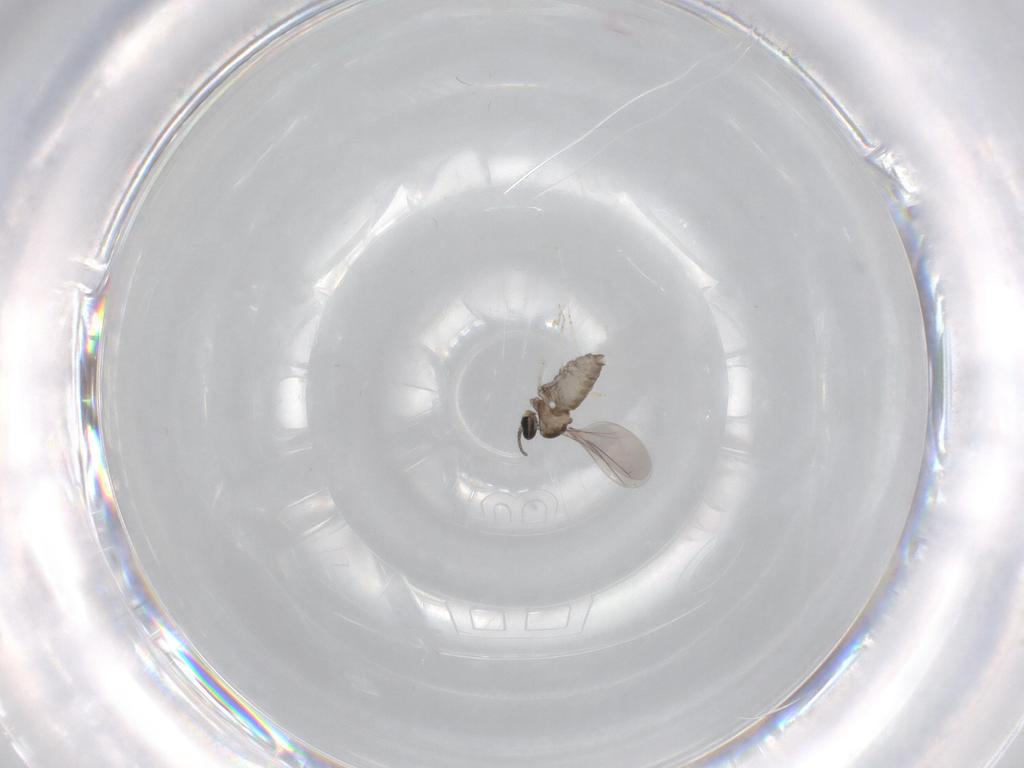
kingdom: Animalia
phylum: Arthropoda
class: Insecta
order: Diptera
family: Cecidomyiidae
